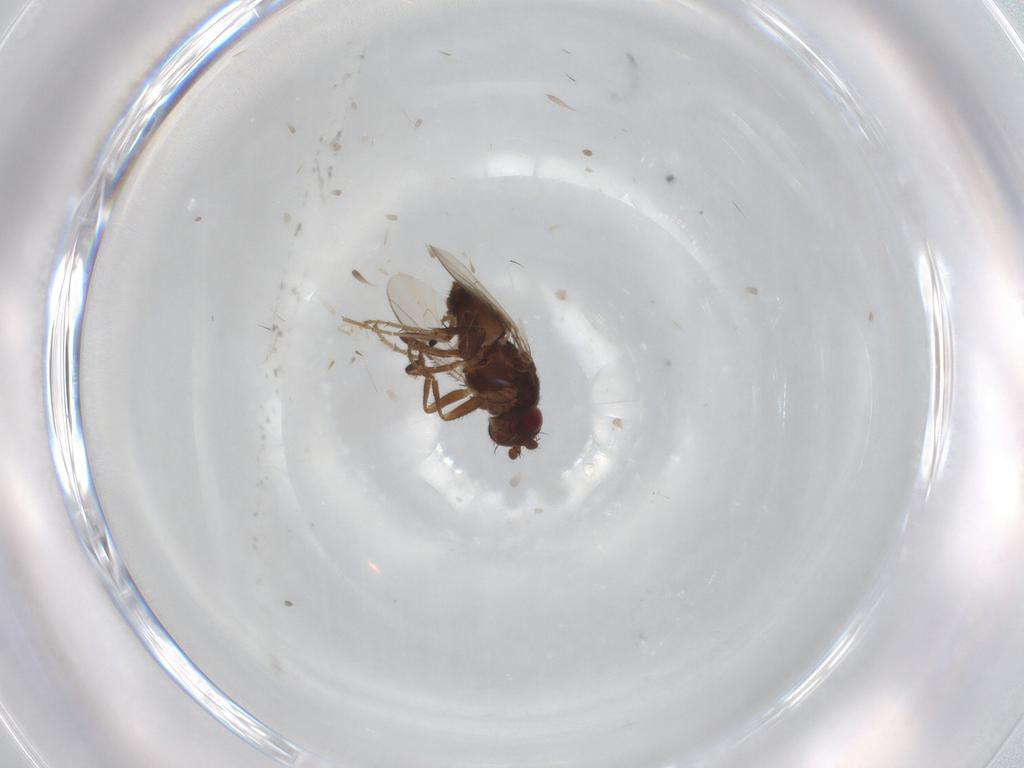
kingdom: Animalia
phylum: Arthropoda
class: Insecta
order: Diptera
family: Sphaeroceridae
